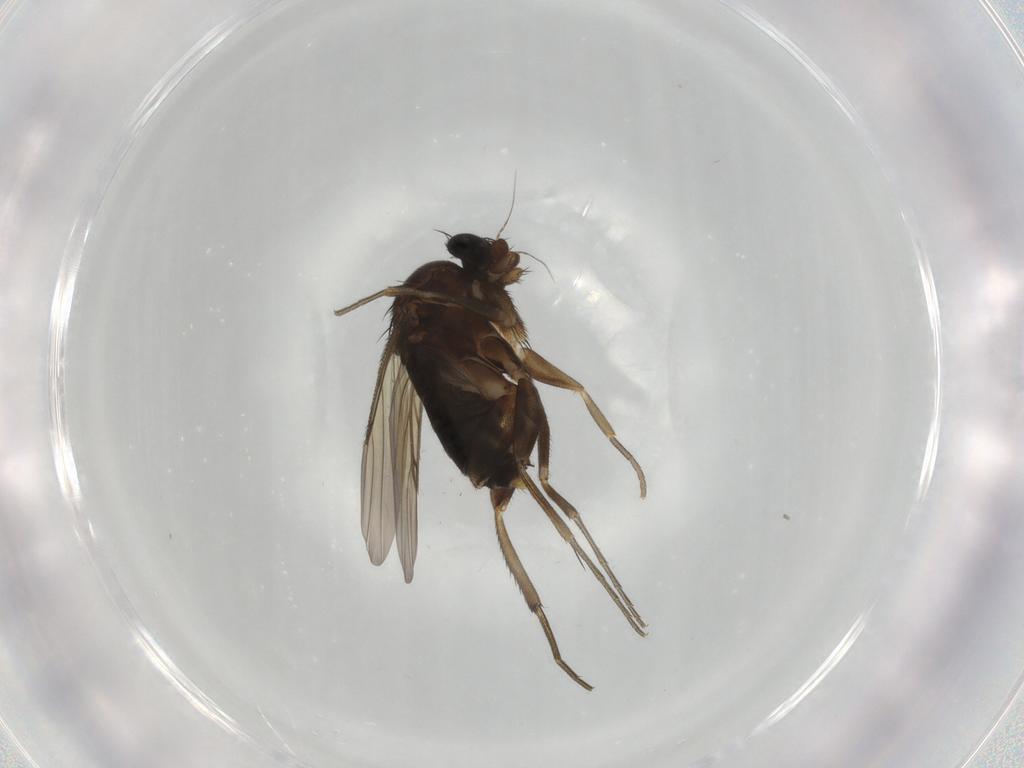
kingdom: Animalia
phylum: Arthropoda
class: Insecta
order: Diptera
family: Phoridae
